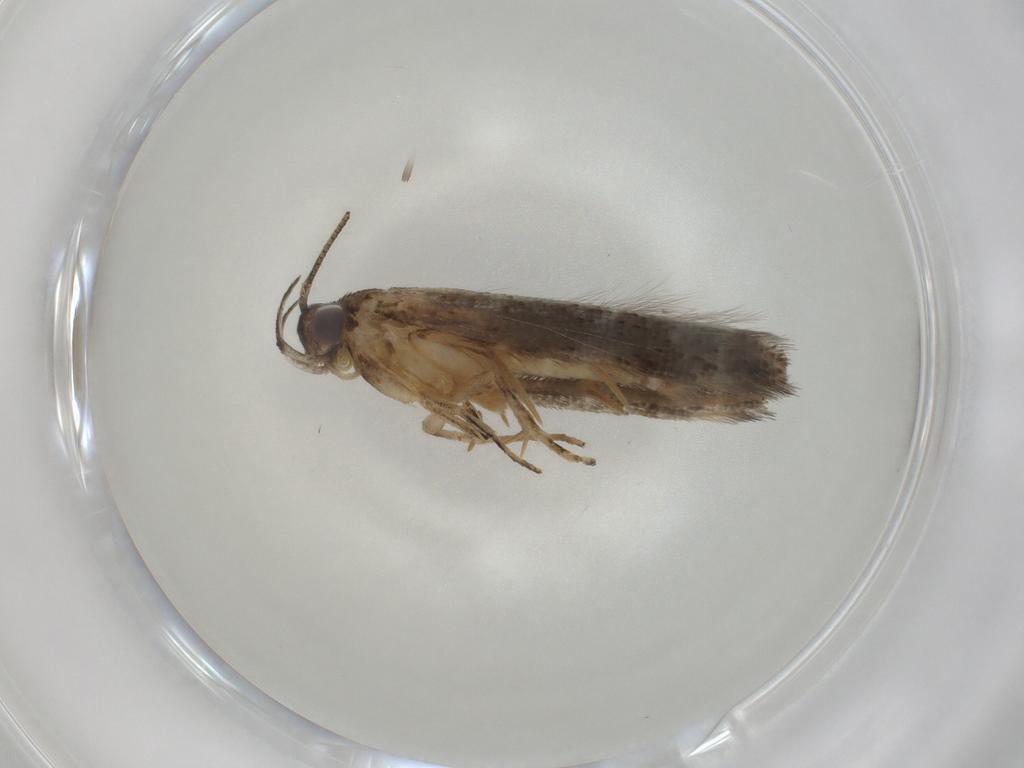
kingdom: Animalia
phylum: Arthropoda
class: Insecta
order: Lepidoptera
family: Cosmopterigidae
